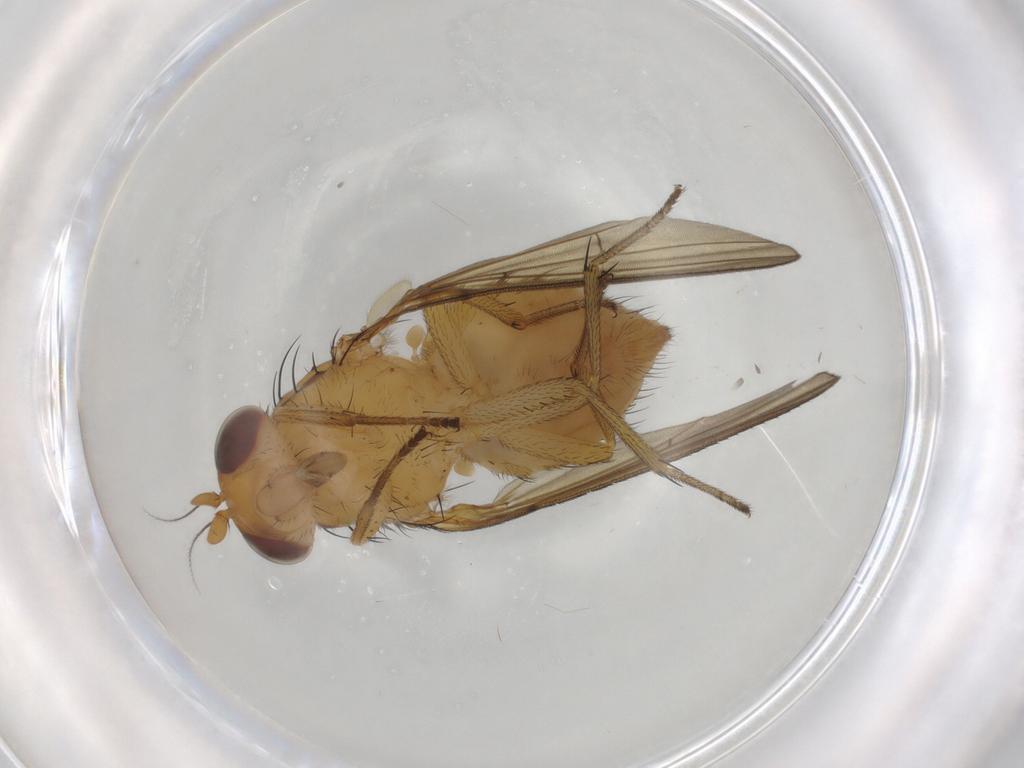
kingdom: Animalia
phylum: Arthropoda
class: Insecta
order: Diptera
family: Lauxaniidae
